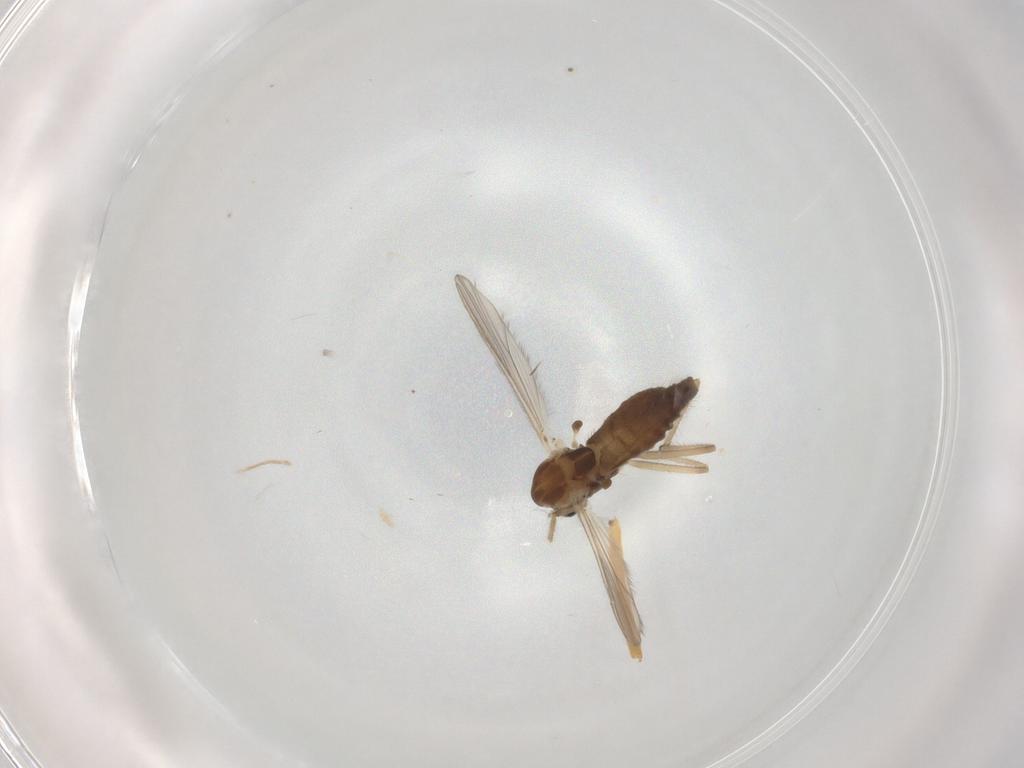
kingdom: Animalia
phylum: Arthropoda
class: Insecta
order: Diptera
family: Chironomidae
